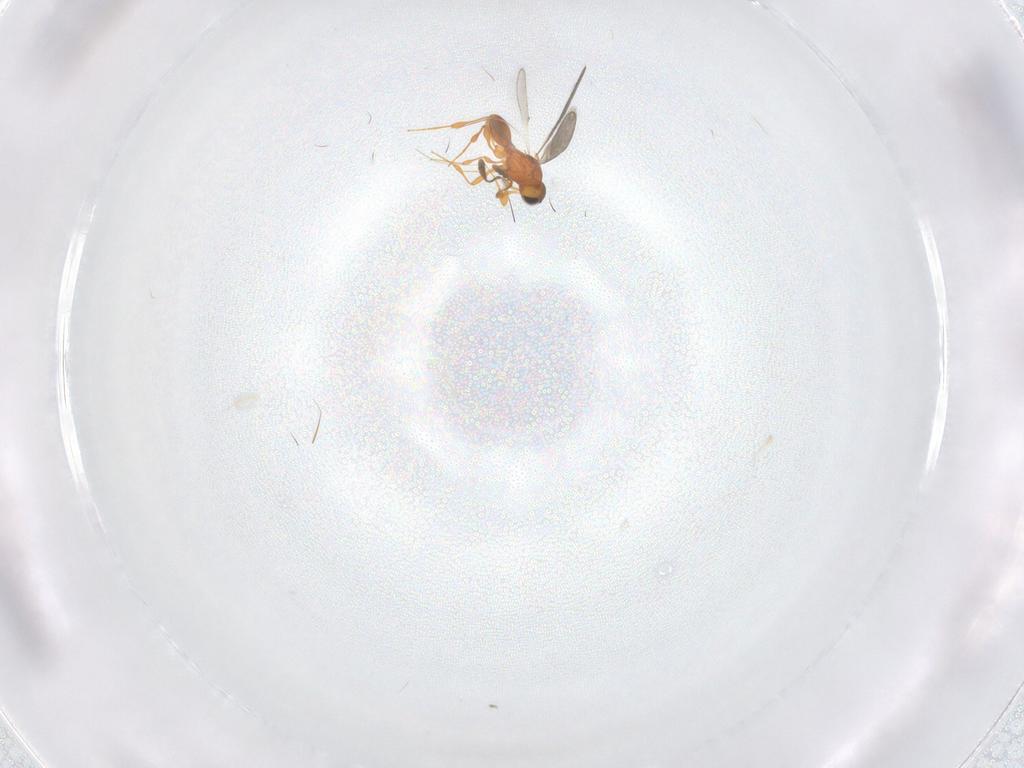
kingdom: Animalia
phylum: Arthropoda
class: Insecta
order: Hymenoptera
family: Platygastridae
